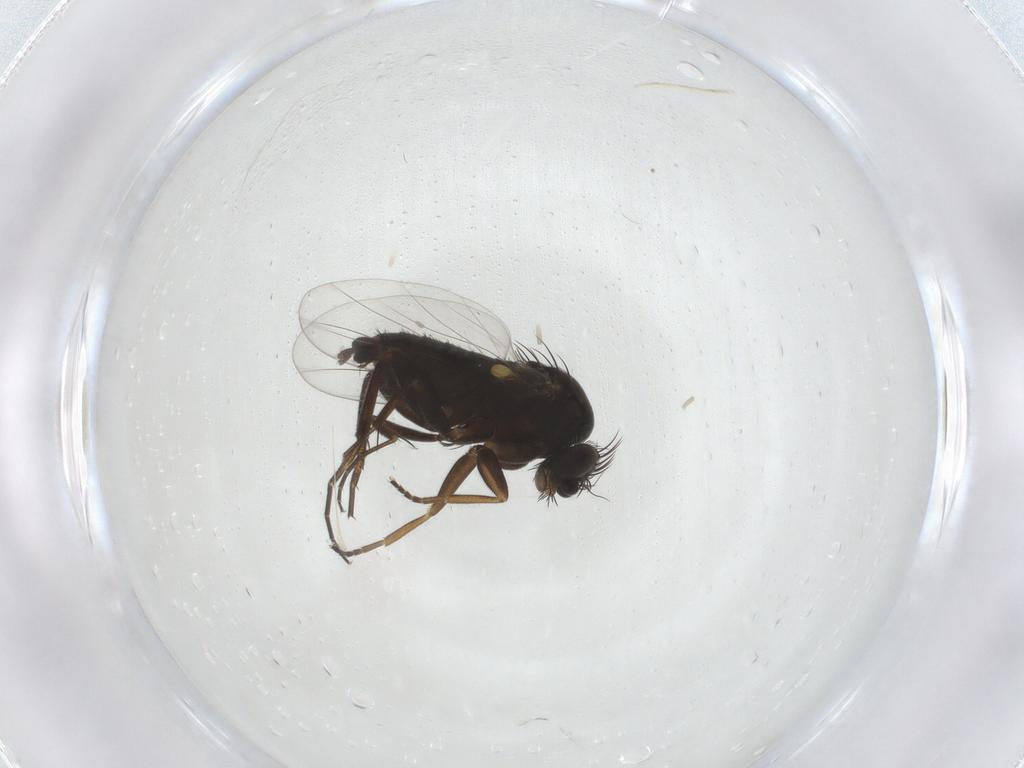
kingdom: Animalia
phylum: Arthropoda
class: Insecta
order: Diptera
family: Phoridae
